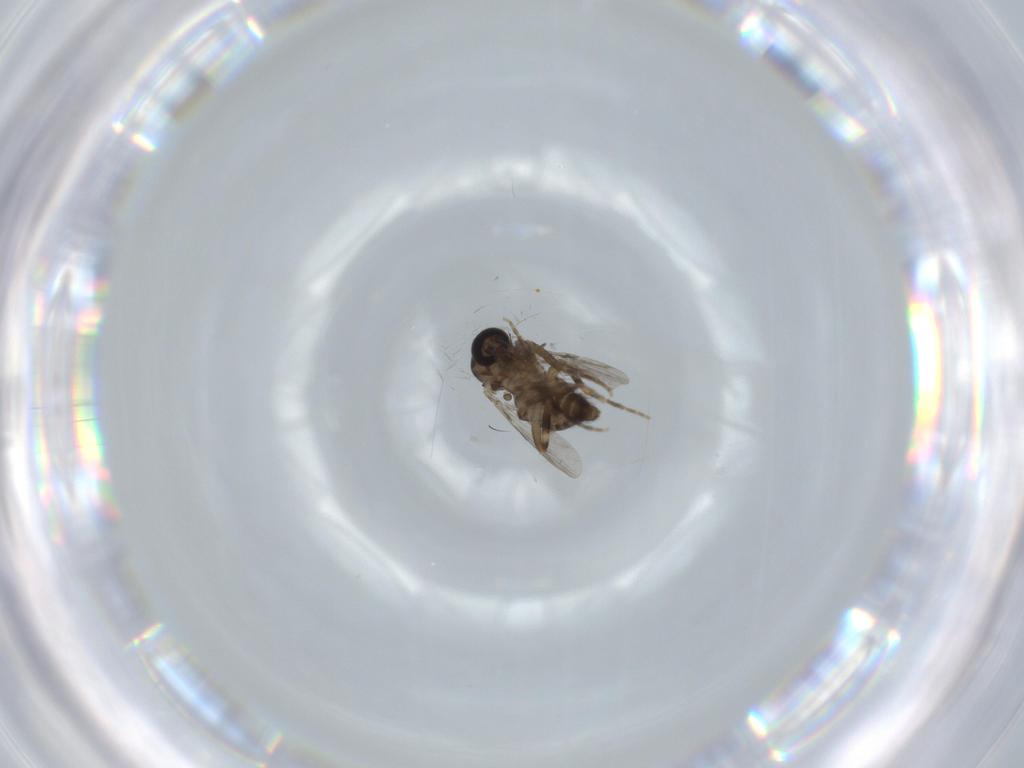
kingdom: Animalia
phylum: Arthropoda
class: Insecta
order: Diptera
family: Ceratopogonidae
